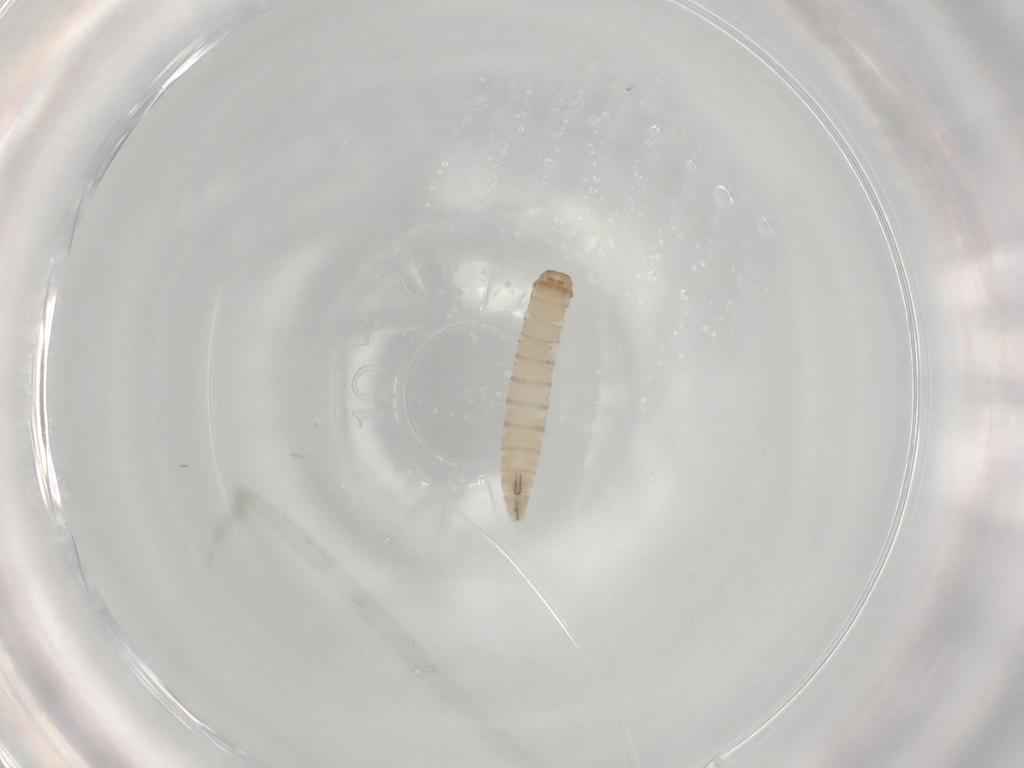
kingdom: Animalia
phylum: Arthropoda
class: Insecta
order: Diptera
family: Sarcophagidae
